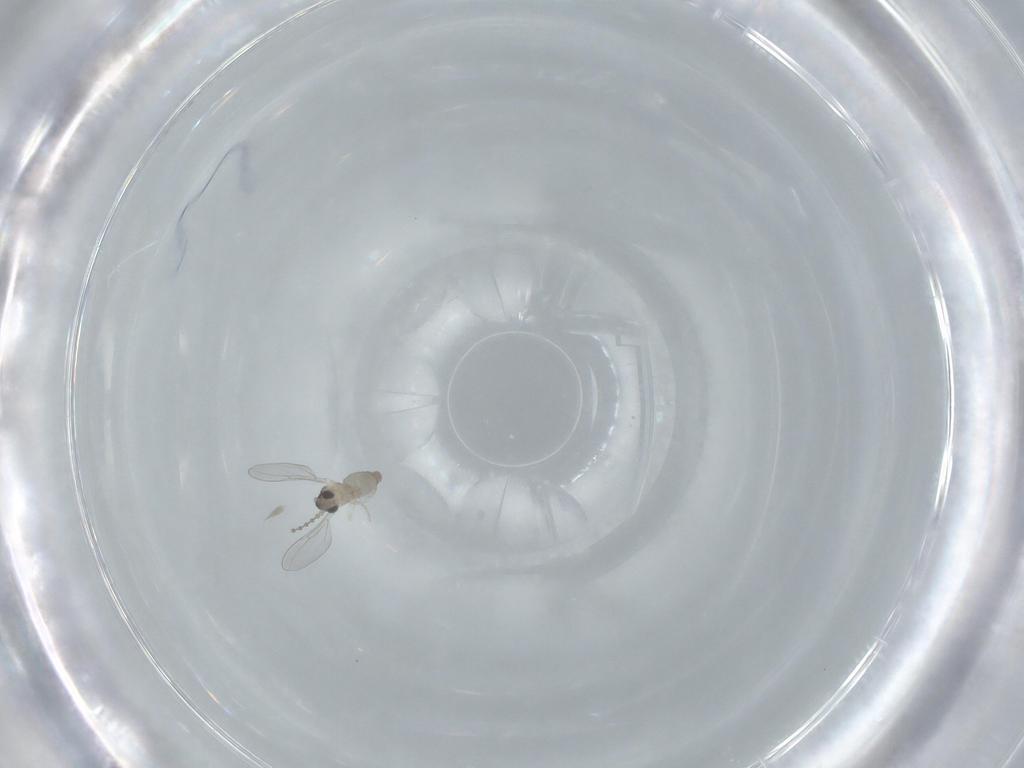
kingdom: Animalia
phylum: Arthropoda
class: Insecta
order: Diptera
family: Cecidomyiidae
